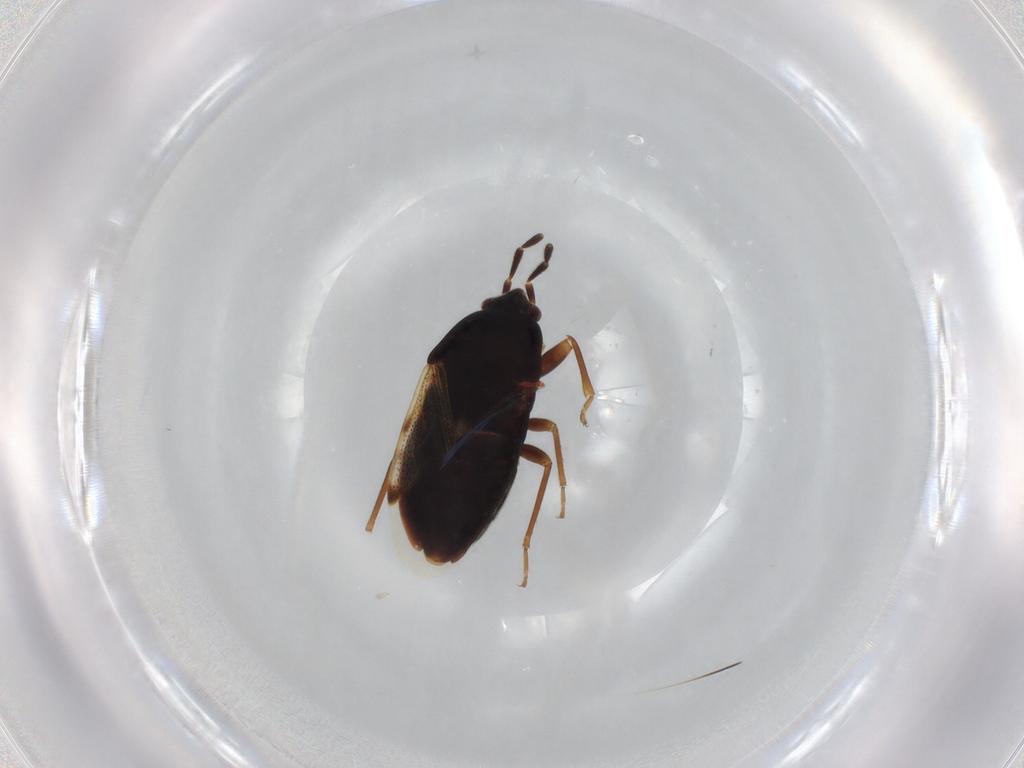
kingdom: Animalia
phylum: Arthropoda
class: Insecta
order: Hemiptera
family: Rhyparochromidae
